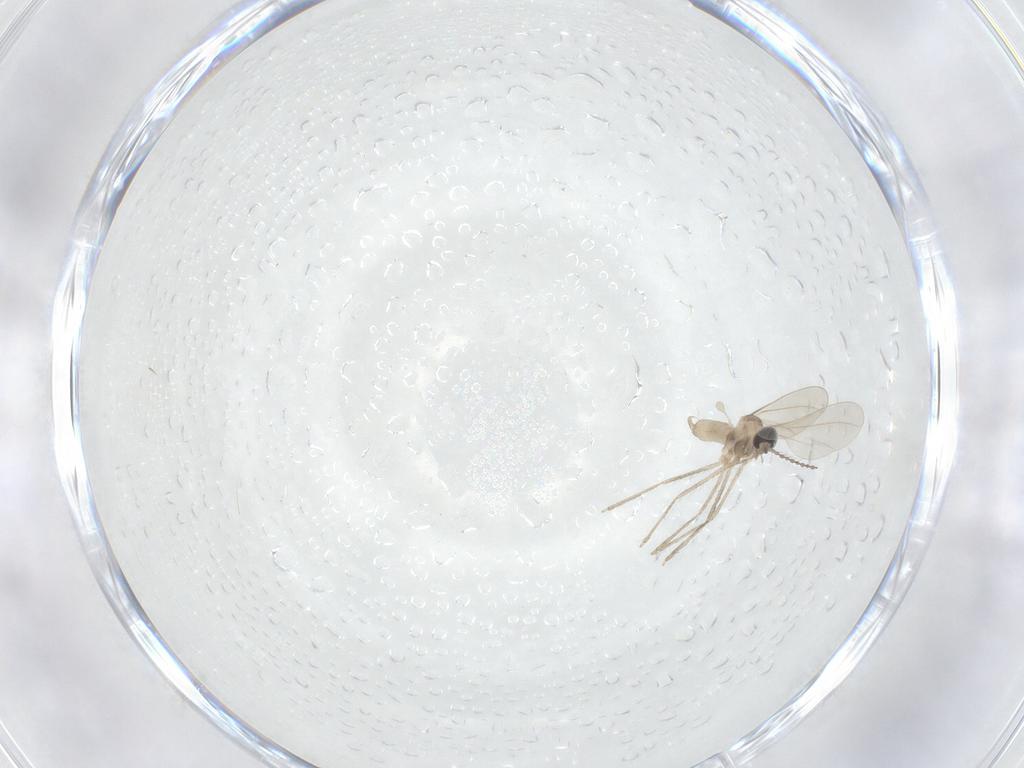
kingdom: Animalia
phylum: Arthropoda
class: Insecta
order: Diptera
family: Cecidomyiidae
